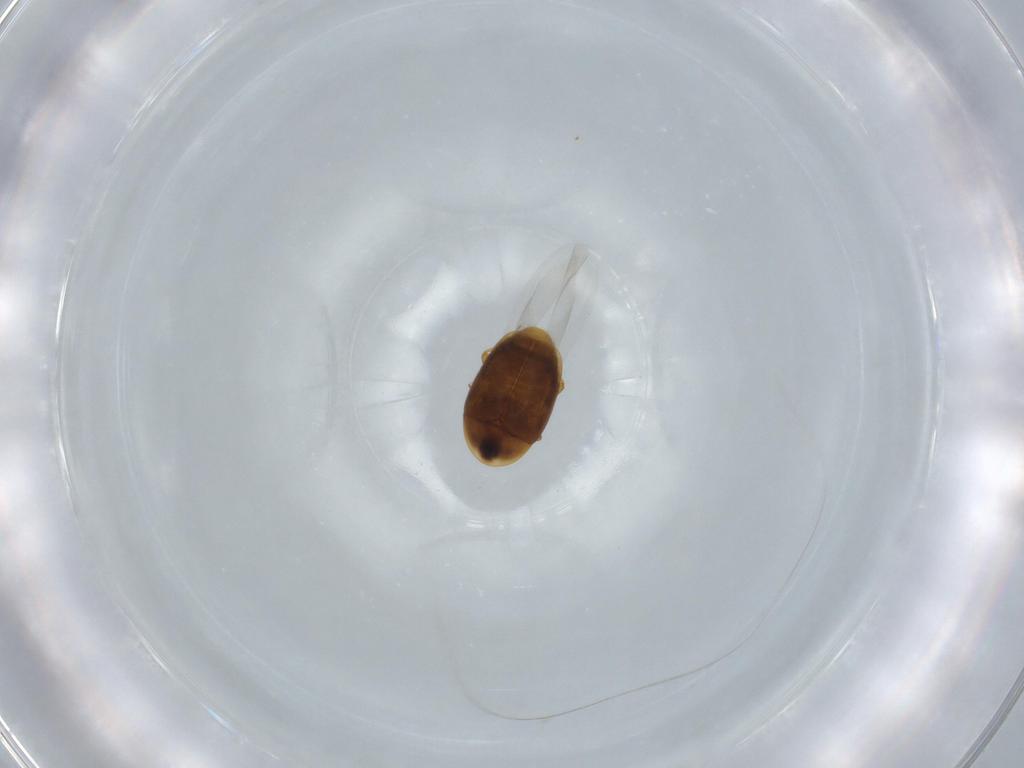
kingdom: Animalia
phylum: Arthropoda
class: Insecta
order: Coleoptera
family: Corylophidae
